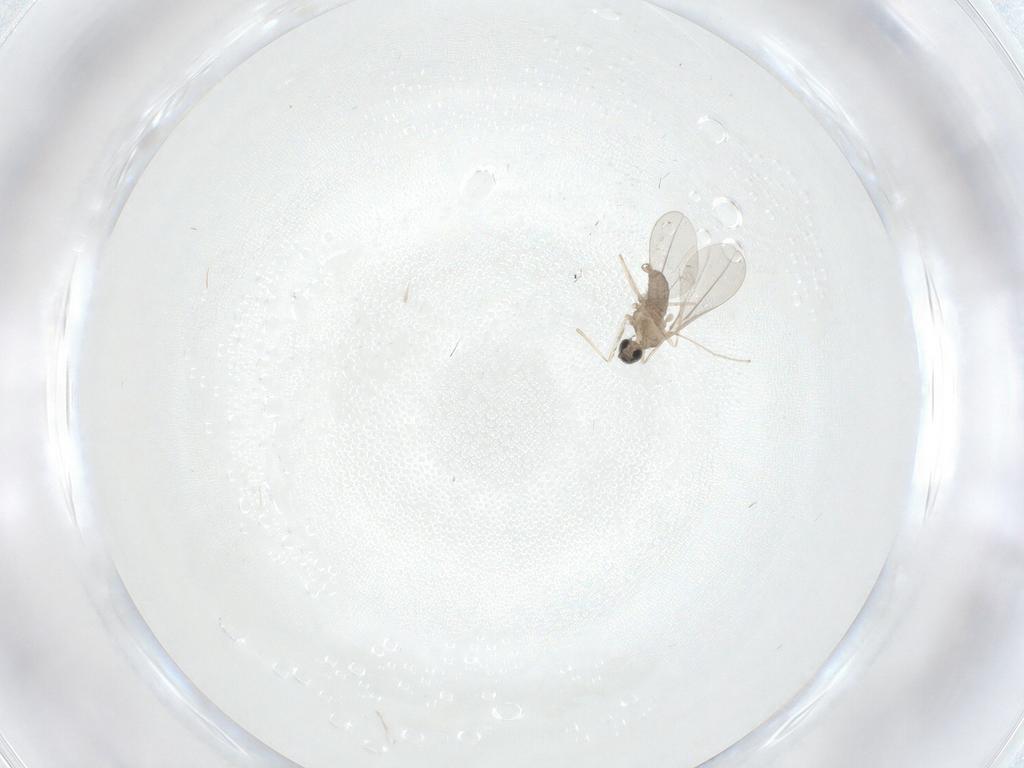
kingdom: Animalia
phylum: Arthropoda
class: Insecta
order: Diptera
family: Cecidomyiidae
